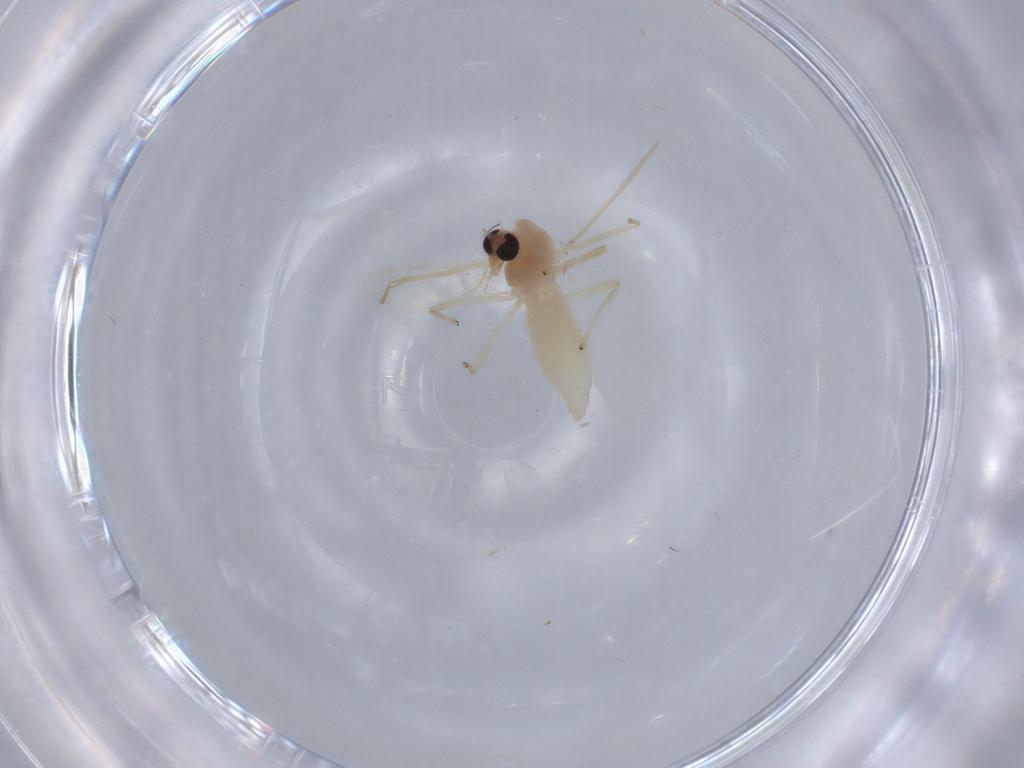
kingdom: Animalia
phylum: Arthropoda
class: Insecta
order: Diptera
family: Chironomidae
